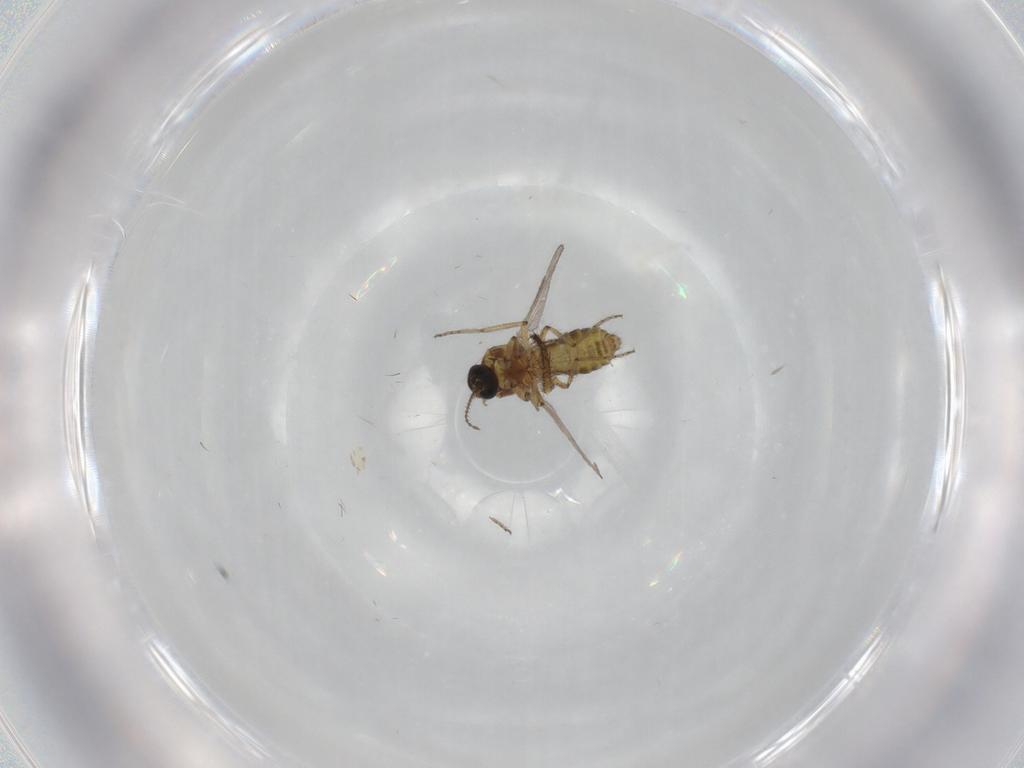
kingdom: Animalia
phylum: Arthropoda
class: Insecta
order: Diptera
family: Ceratopogonidae
